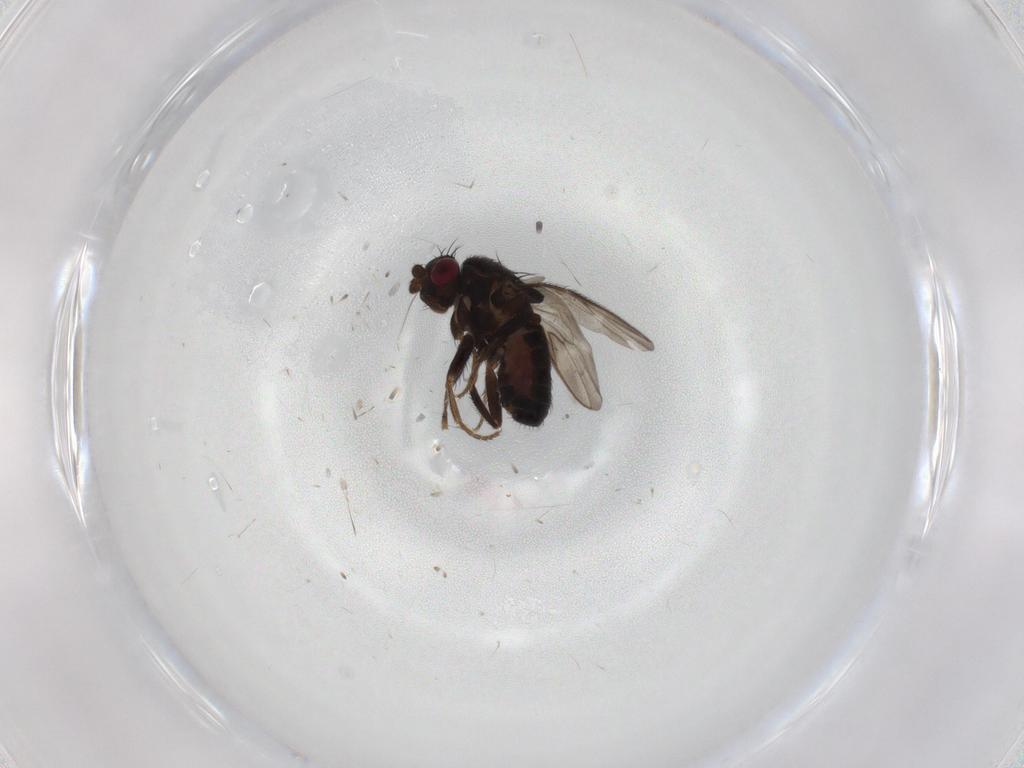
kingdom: Animalia
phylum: Arthropoda
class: Insecta
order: Diptera
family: Sphaeroceridae
